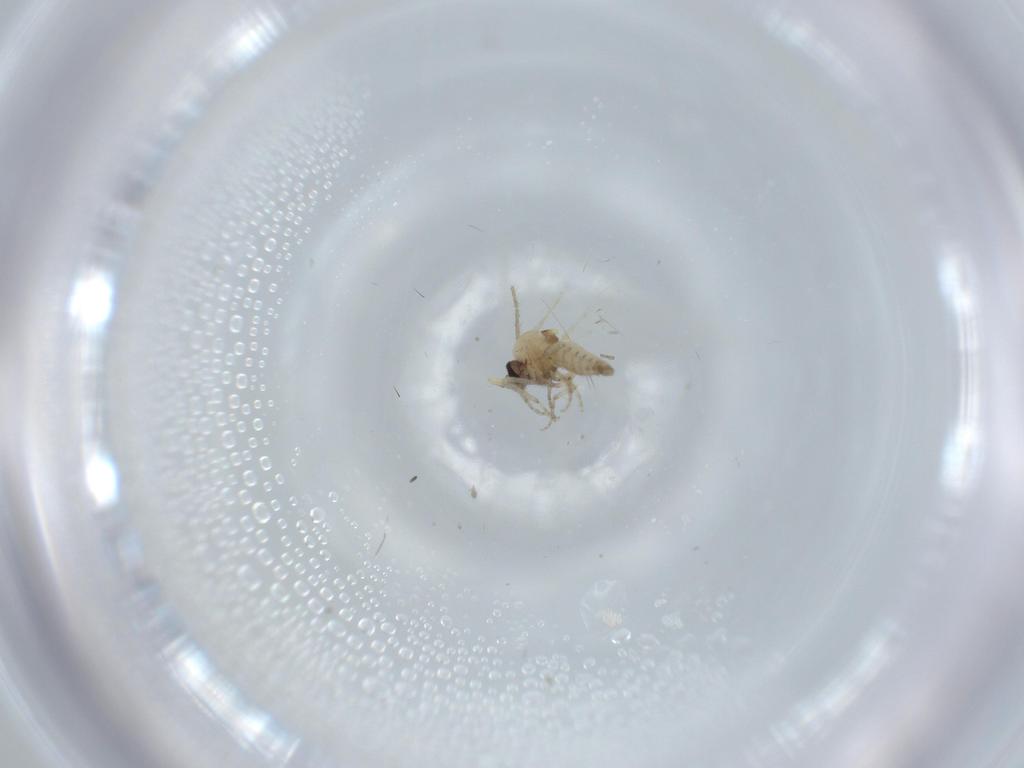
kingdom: Animalia
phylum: Arthropoda
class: Insecta
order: Diptera
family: Cecidomyiidae
